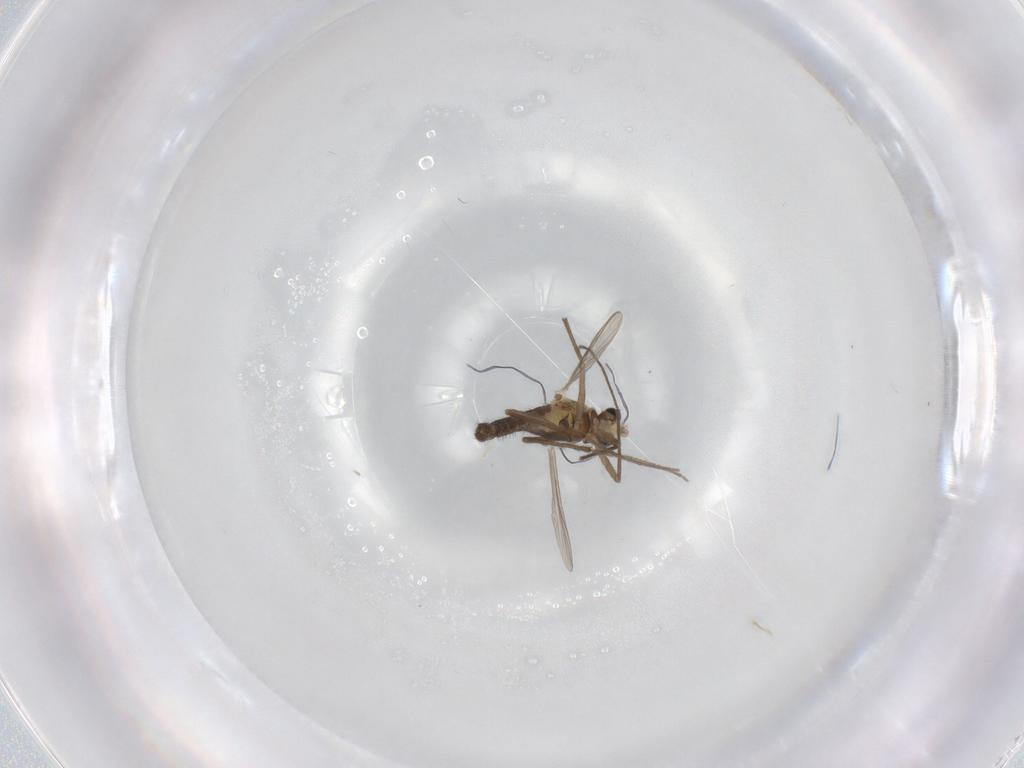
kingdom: Animalia
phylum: Arthropoda
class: Insecta
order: Diptera
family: Chironomidae
